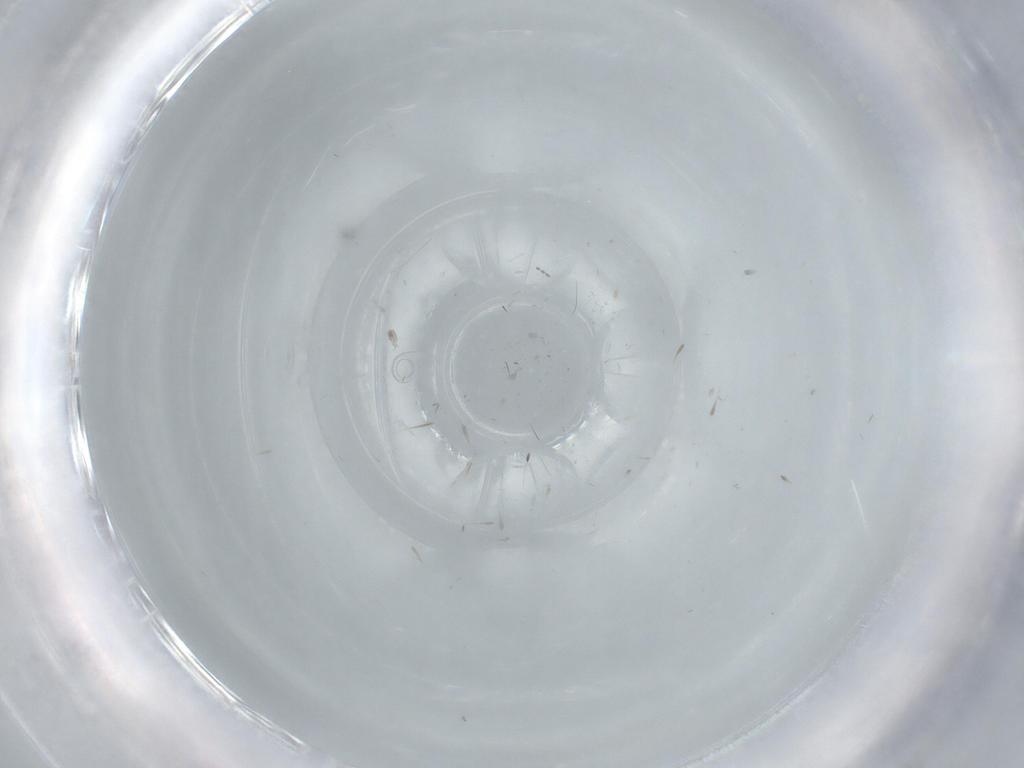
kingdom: Animalia
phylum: Arthropoda
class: Insecta
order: Diptera
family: Cecidomyiidae
